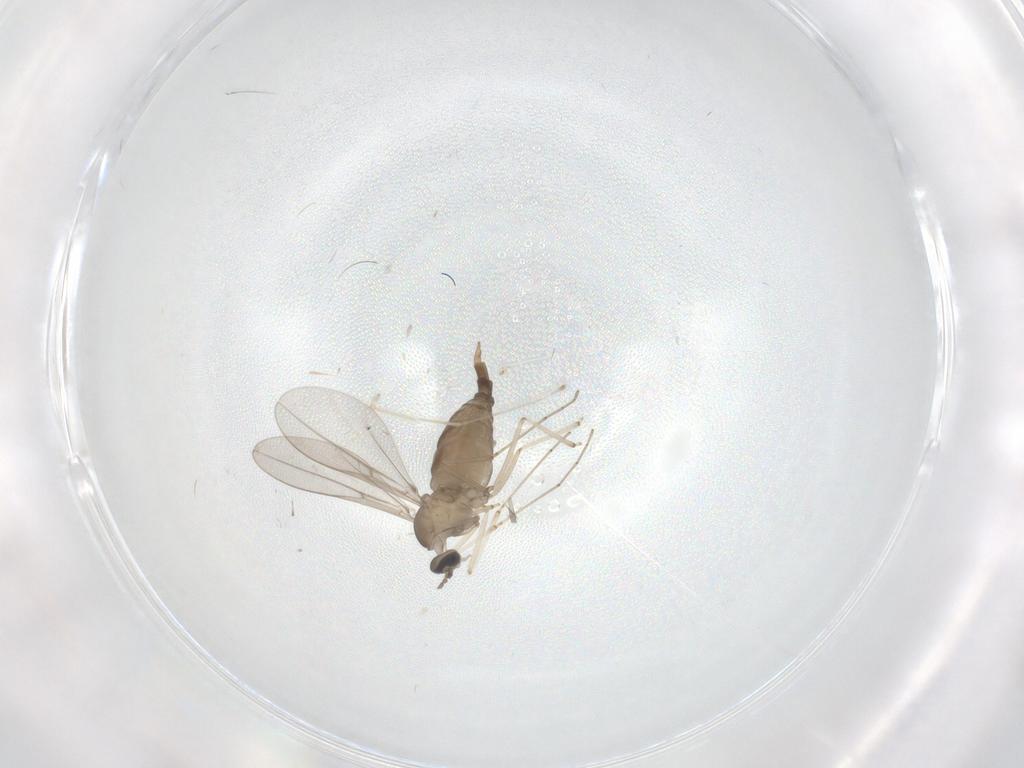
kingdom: Animalia
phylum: Arthropoda
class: Insecta
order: Diptera
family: Cecidomyiidae
